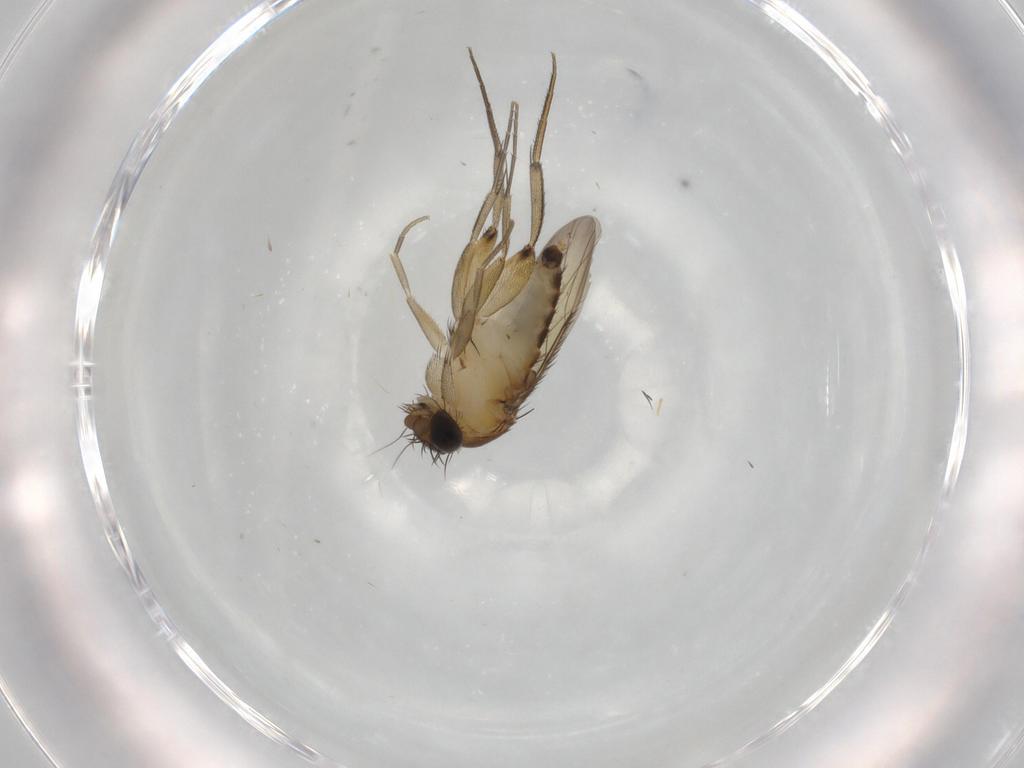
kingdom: Animalia
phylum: Arthropoda
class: Insecta
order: Diptera
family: Phoridae
